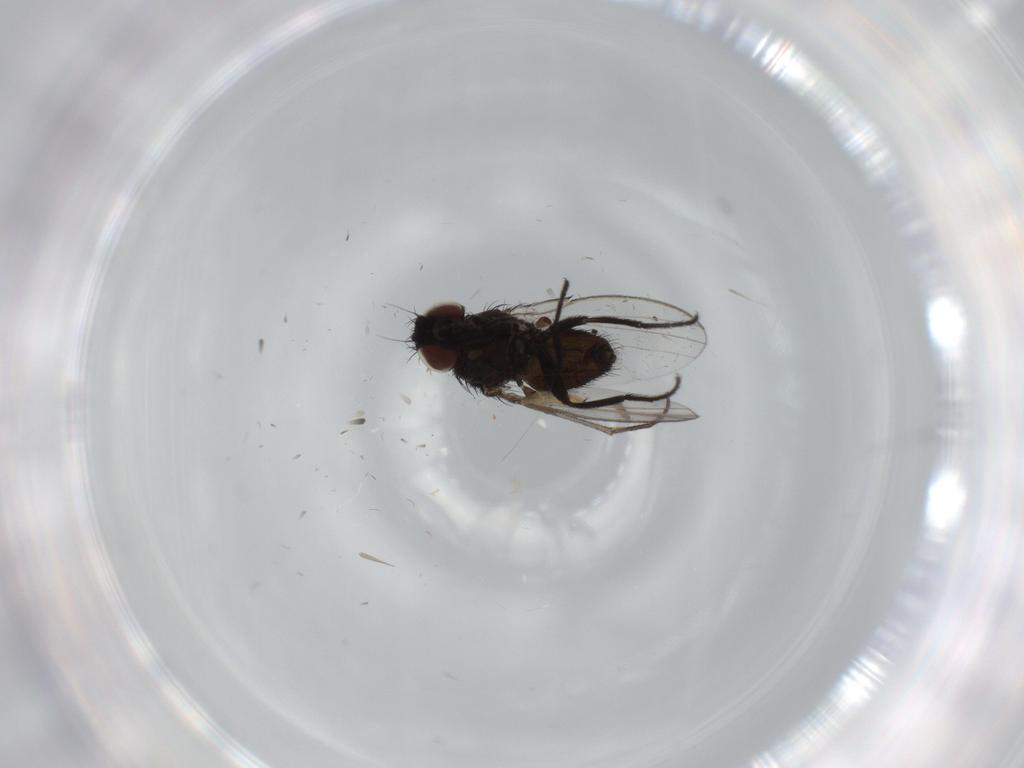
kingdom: Animalia
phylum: Arthropoda
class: Insecta
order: Diptera
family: Milichiidae
